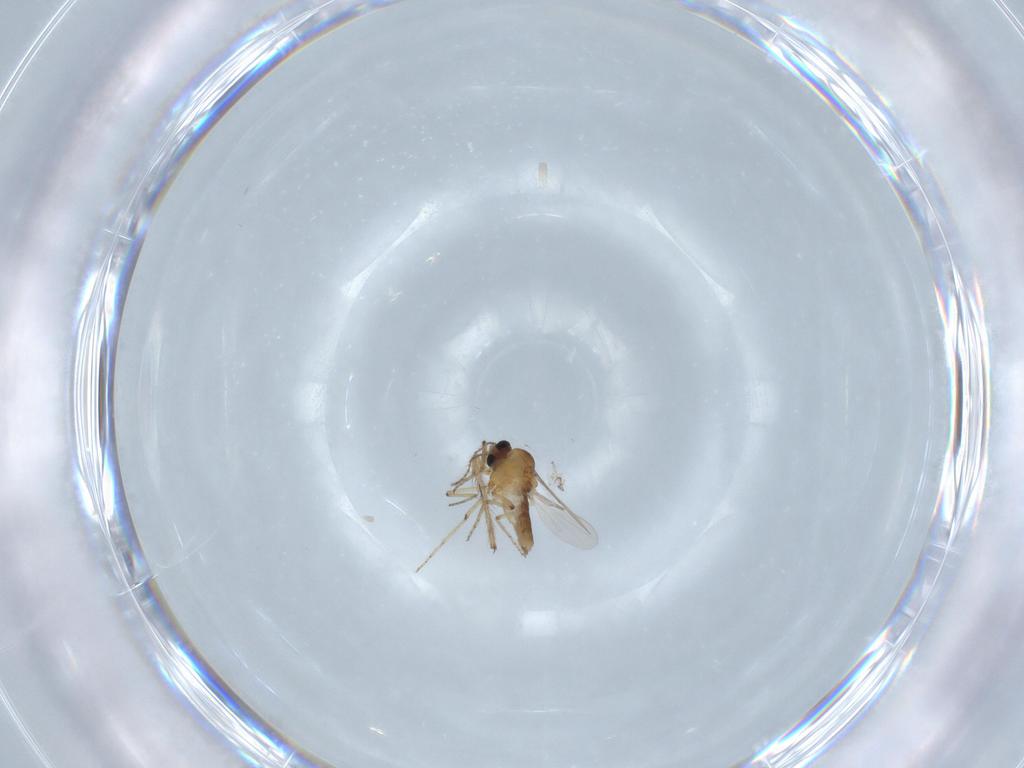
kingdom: Animalia
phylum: Arthropoda
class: Insecta
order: Diptera
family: Chironomidae
